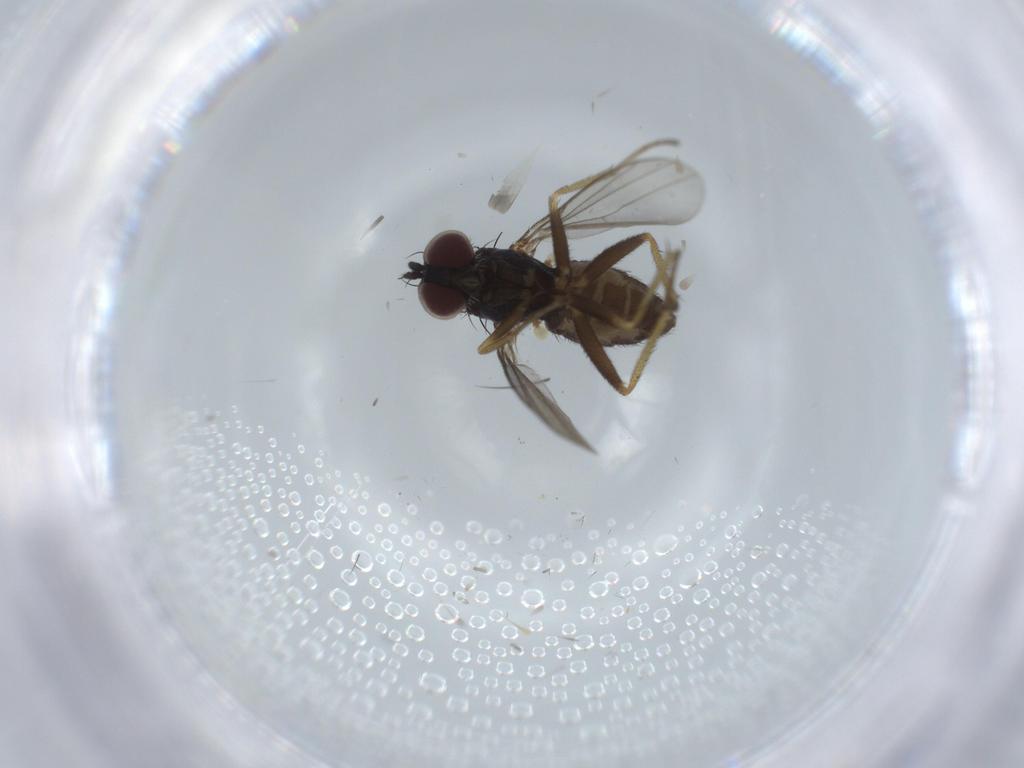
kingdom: Animalia
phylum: Arthropoda
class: Insecta
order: Diptera
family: Dolichopodidae
